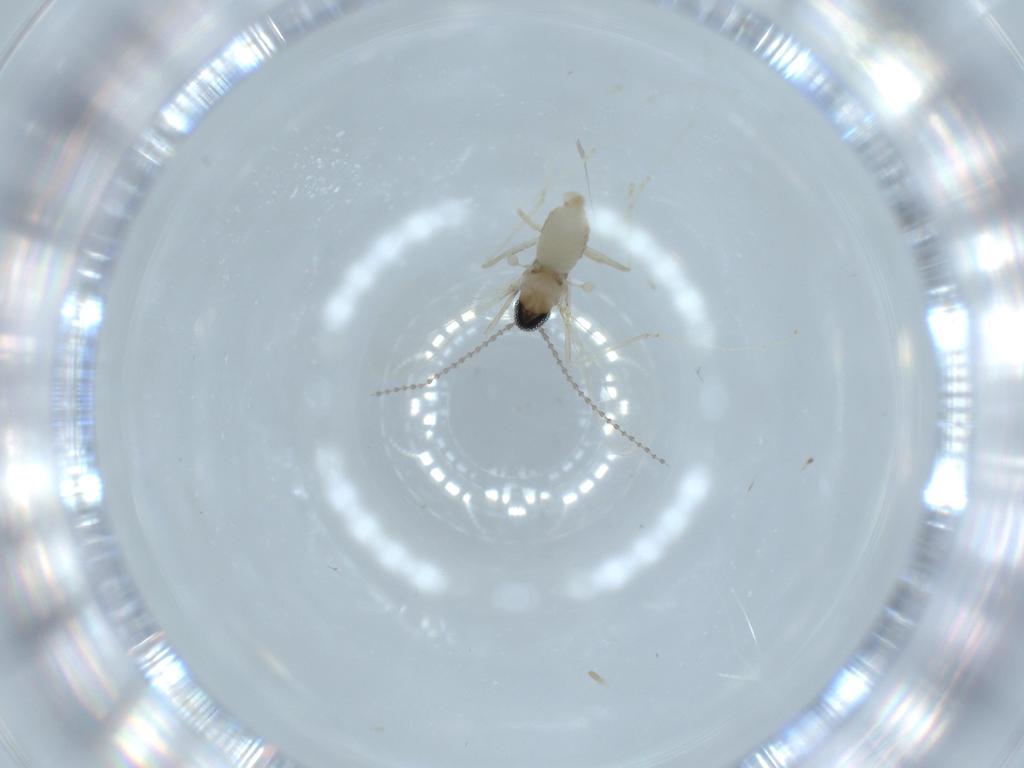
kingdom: Animalia
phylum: Arthropoda
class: Insecta
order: Diptera
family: Cecidomyiidae
